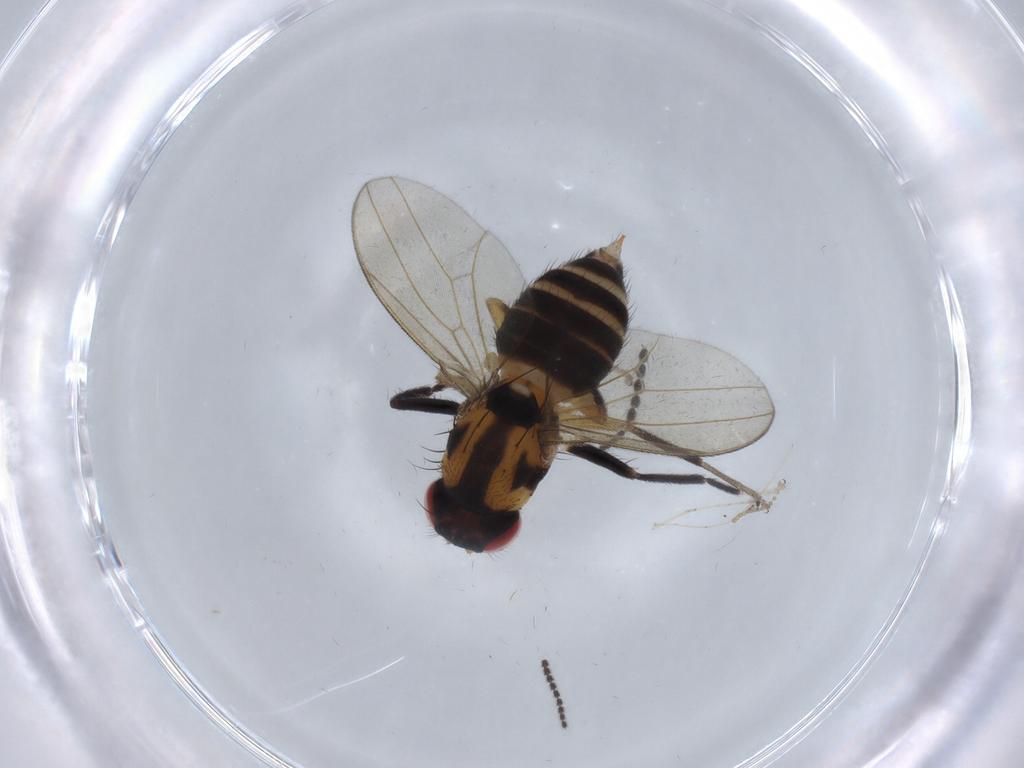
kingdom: Animalia
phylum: Arthropoda
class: Insecta
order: Diptera
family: Drosophilidae
